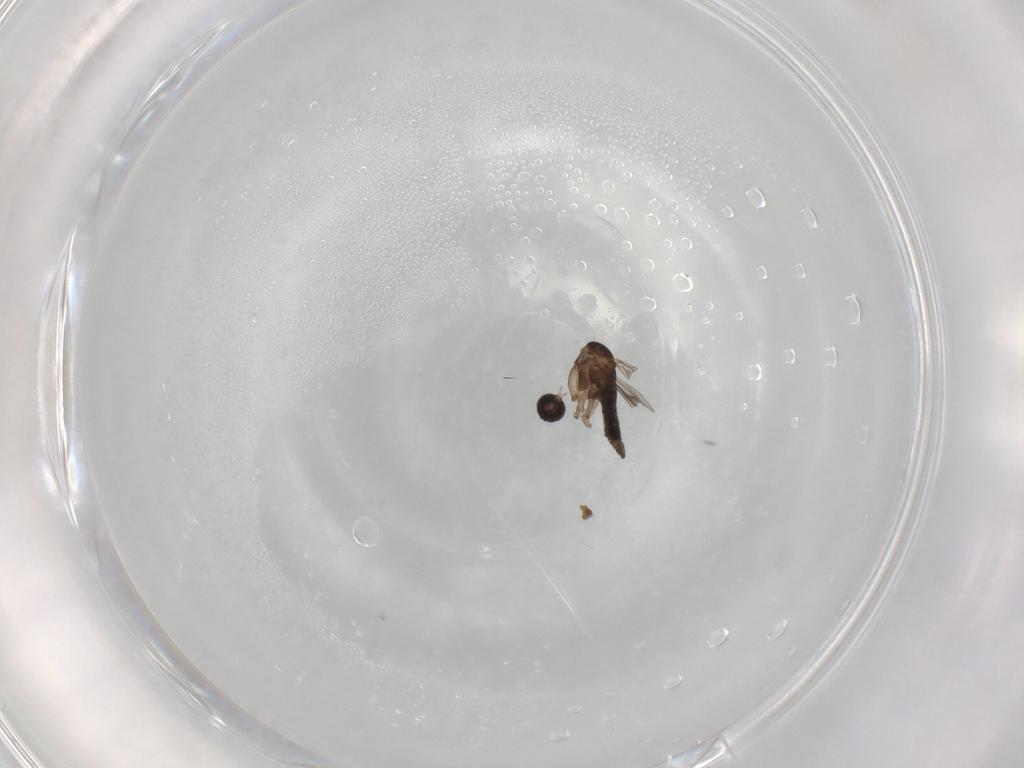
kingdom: Animalia
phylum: Arthropoda
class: Insecta
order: Diptera
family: Sciaridae
